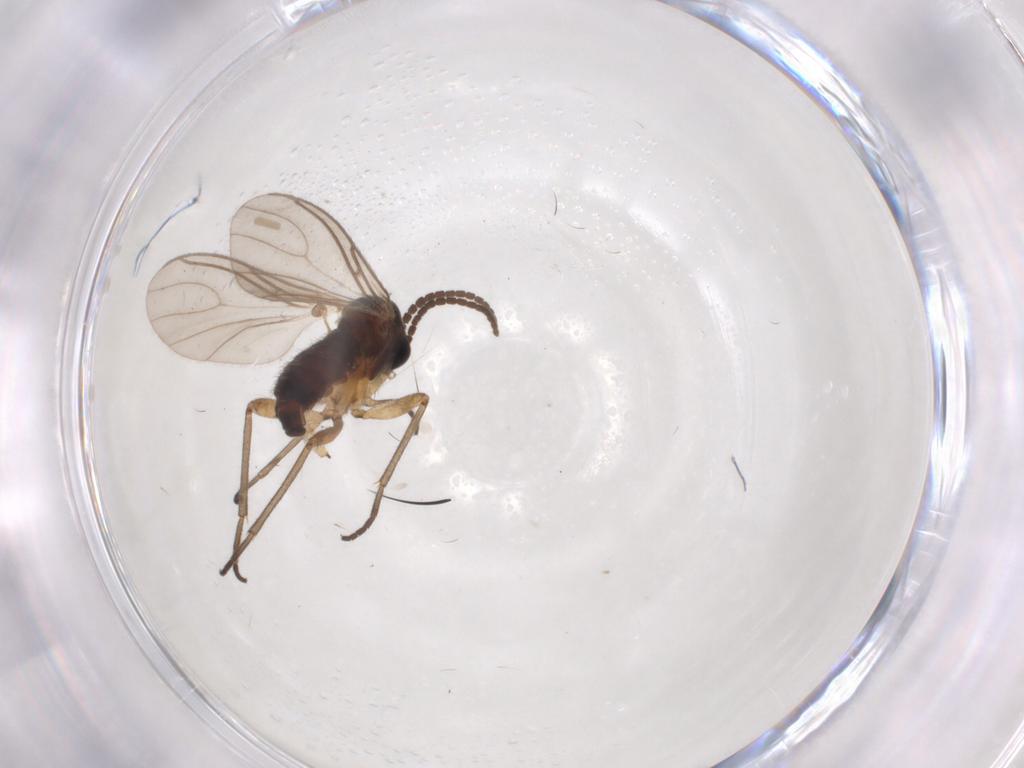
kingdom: Animalia
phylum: Arthropoda
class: Insecta
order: Diptera
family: Sciaridae
